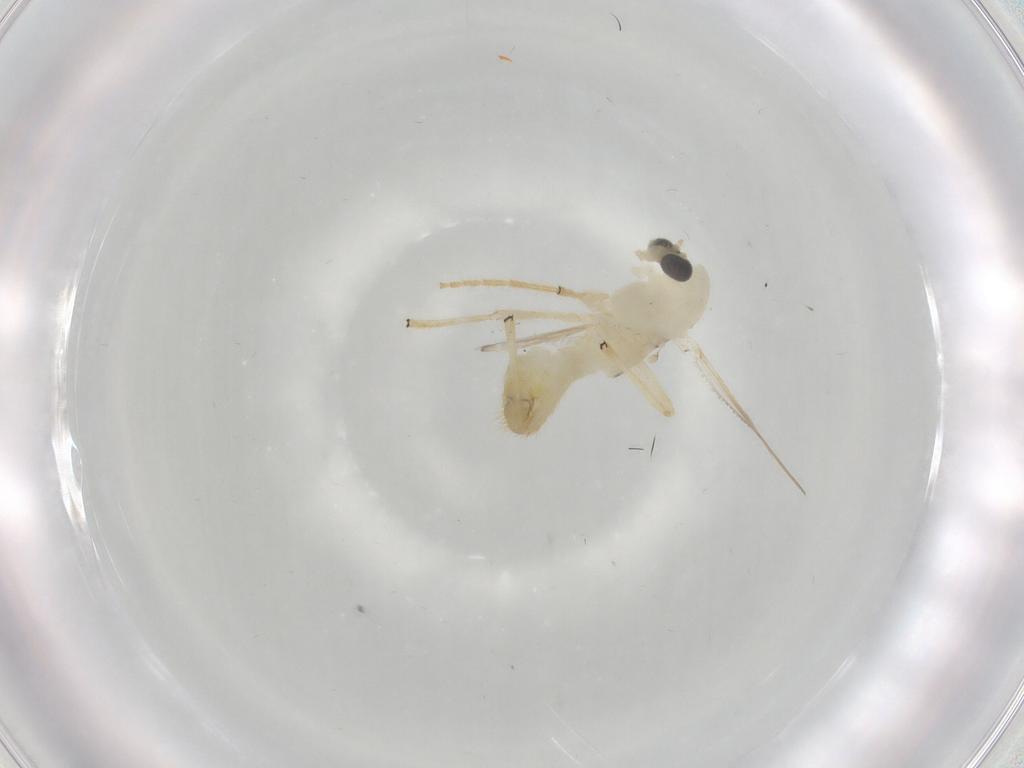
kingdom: Animalia
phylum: Arthropoda
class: Insecta
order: Diptera
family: Chironomidae
